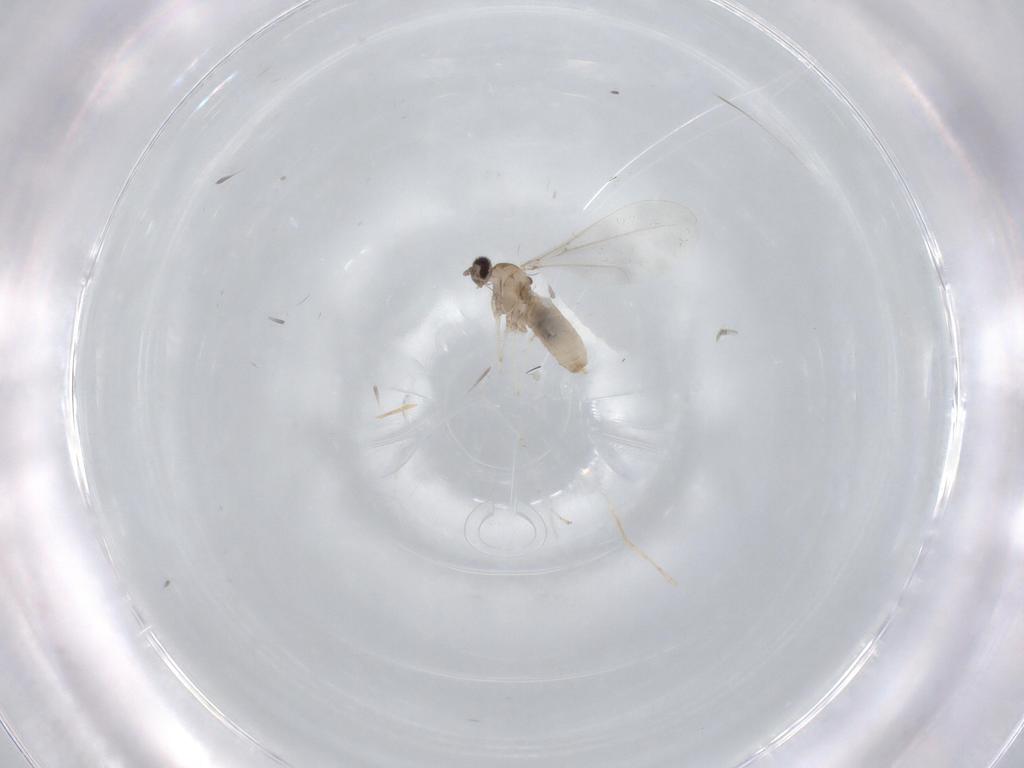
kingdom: Animalia
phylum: Arthropoda
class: Insecta
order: Diptera
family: Cecidomyiidae
